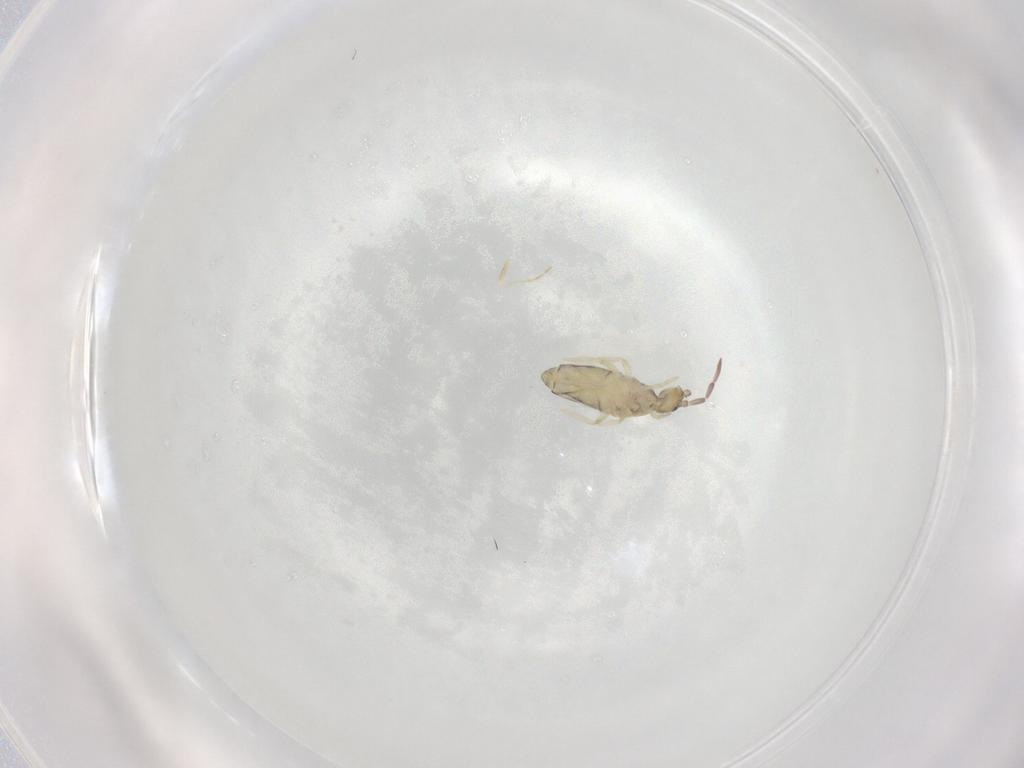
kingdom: Animalia
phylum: Arthropoda
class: Collembola
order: Entomobryomorpha
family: Entomobryidae
